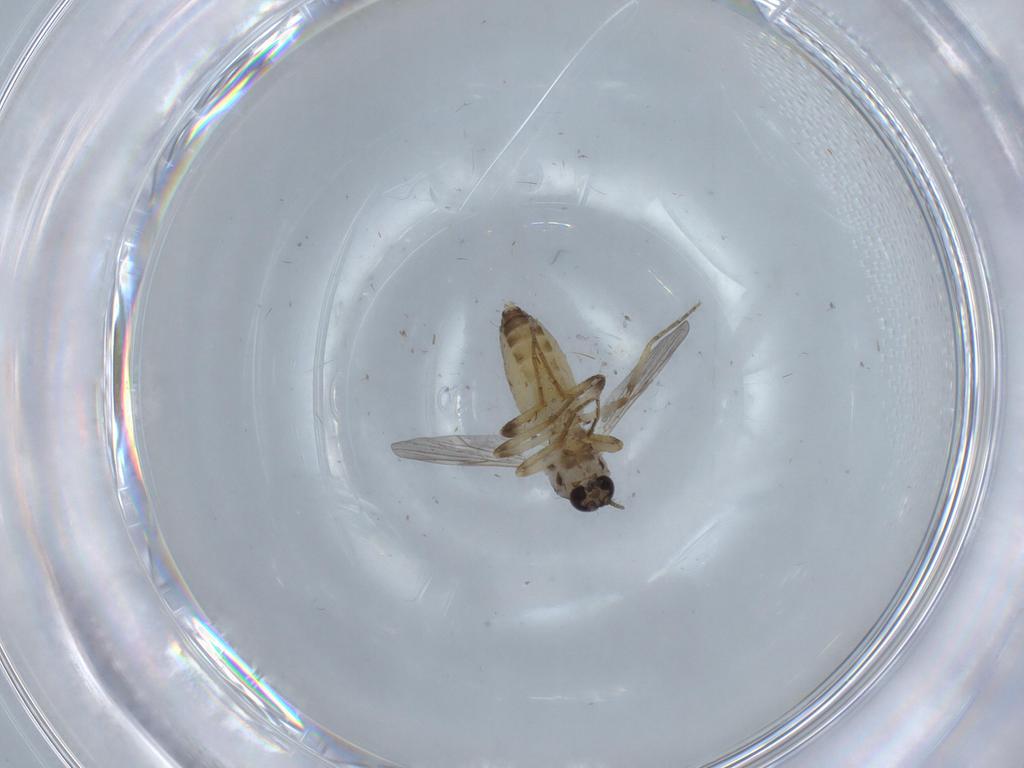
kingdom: Animalia
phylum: Arthropoda
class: Insecta
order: Diptera
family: Ceratopogonidae
